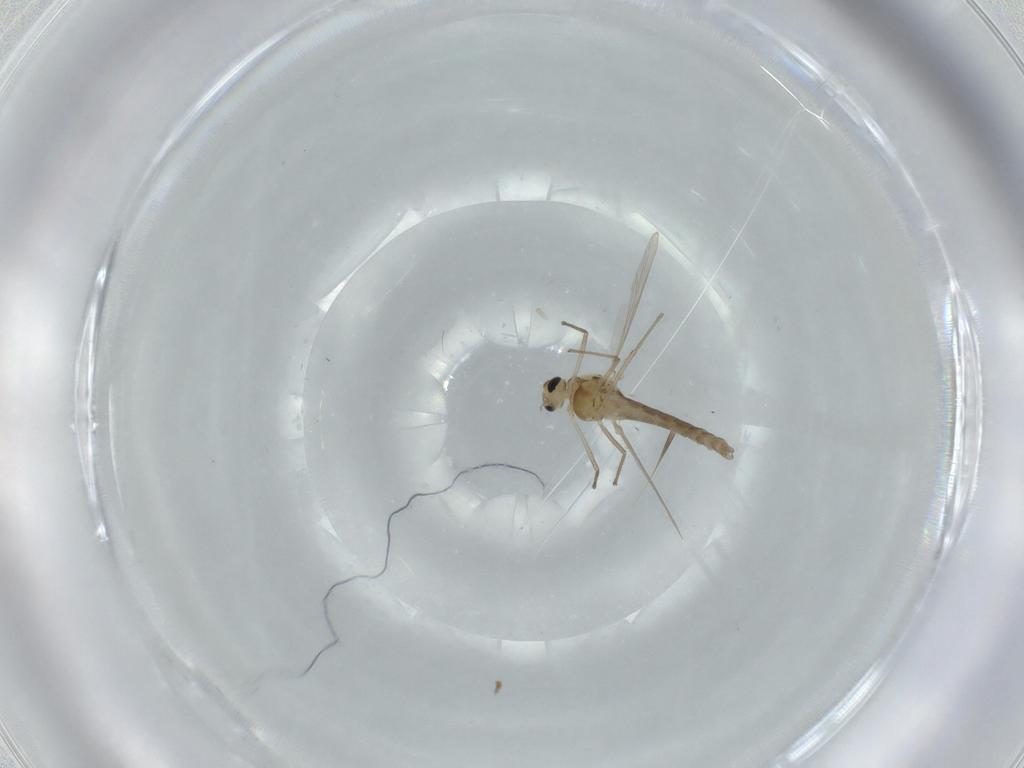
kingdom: Animalia
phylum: Arthropoda
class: Insecta
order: Diptera
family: Chironomidae
